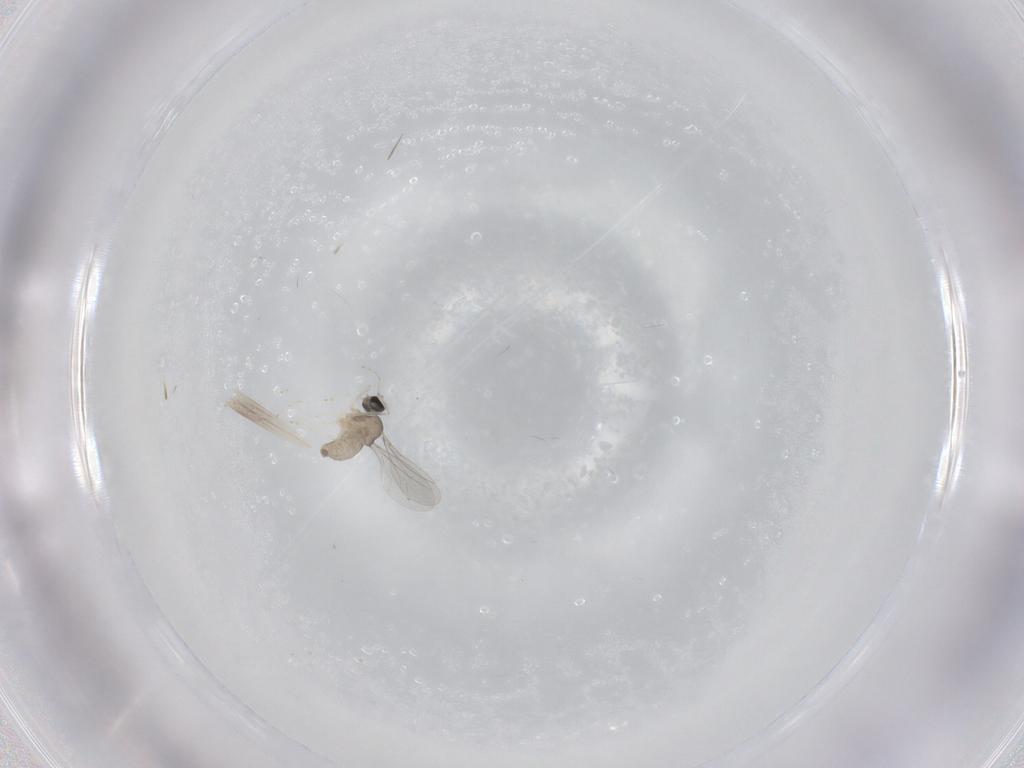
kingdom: Animalia
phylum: Arthropoda
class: Insecta
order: Diptera
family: Cecidomyiidae
